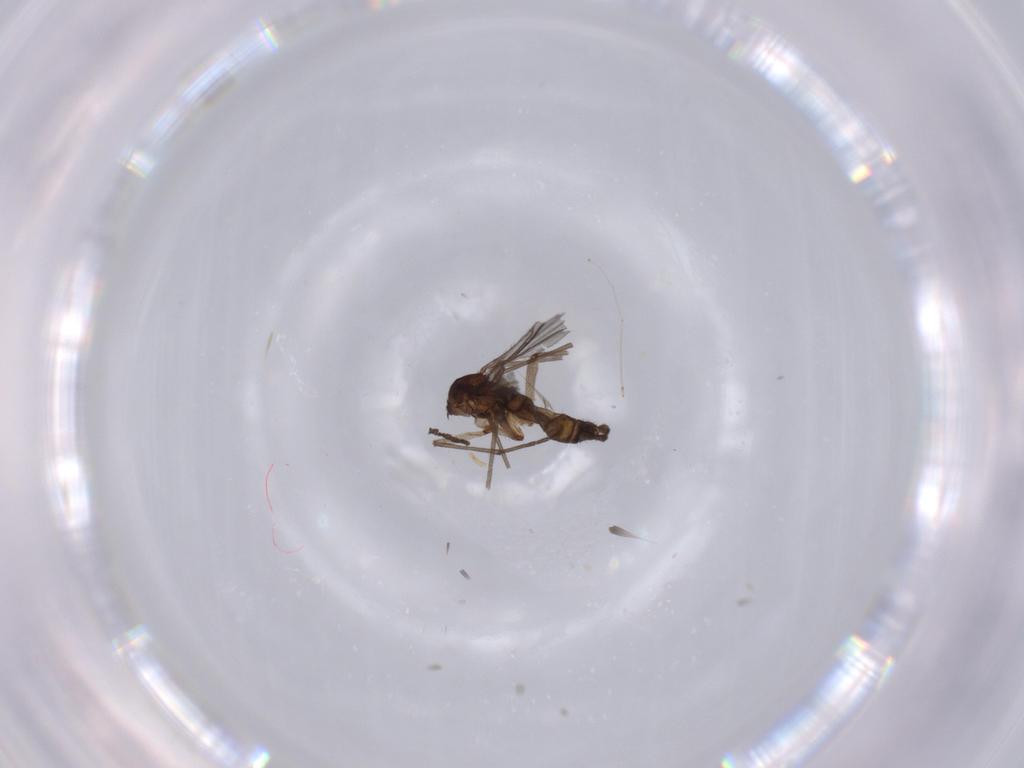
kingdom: Animalia
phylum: Arthropoda
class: Insecta
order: Diptera
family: Sciaridae
